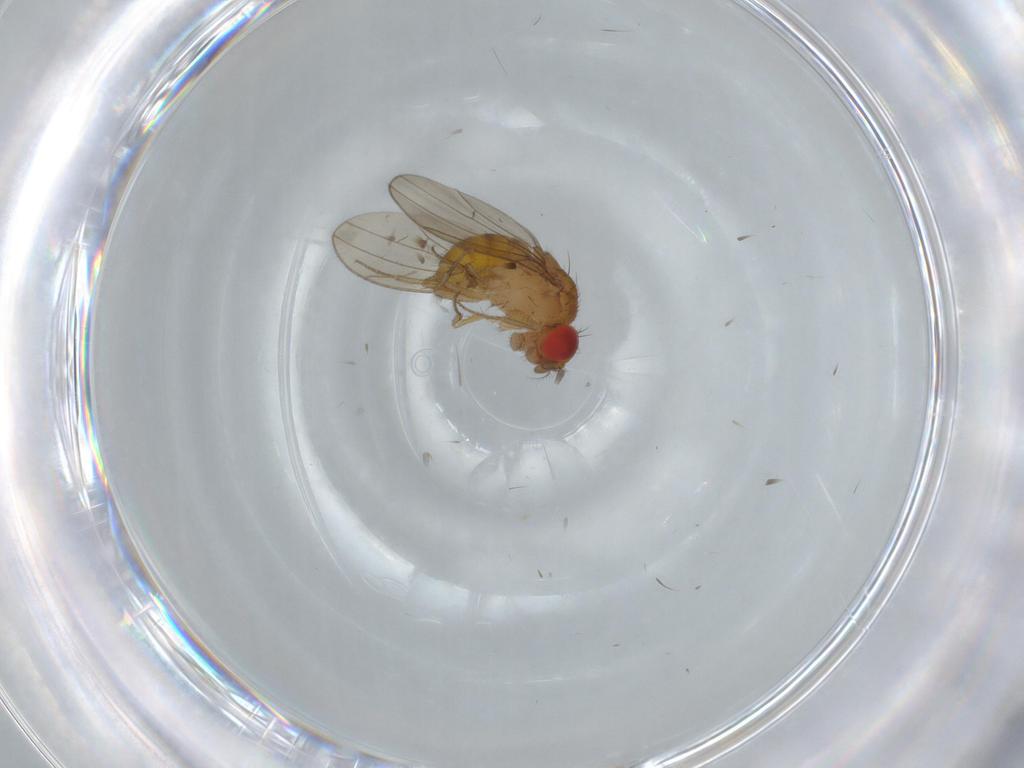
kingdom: Animalia
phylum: Arthropoda
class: Insecta
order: Diptera
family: Drosophilidae
